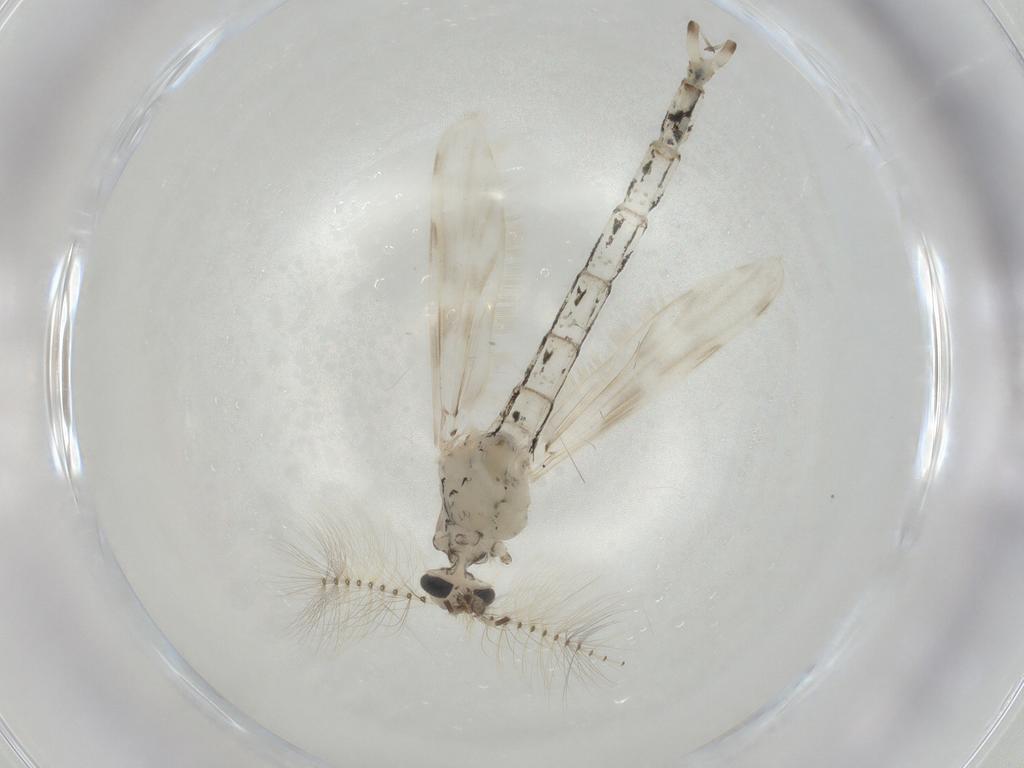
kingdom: Animalia
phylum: Arthropoda
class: Insecta
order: Diptera
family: Chaoboridae
